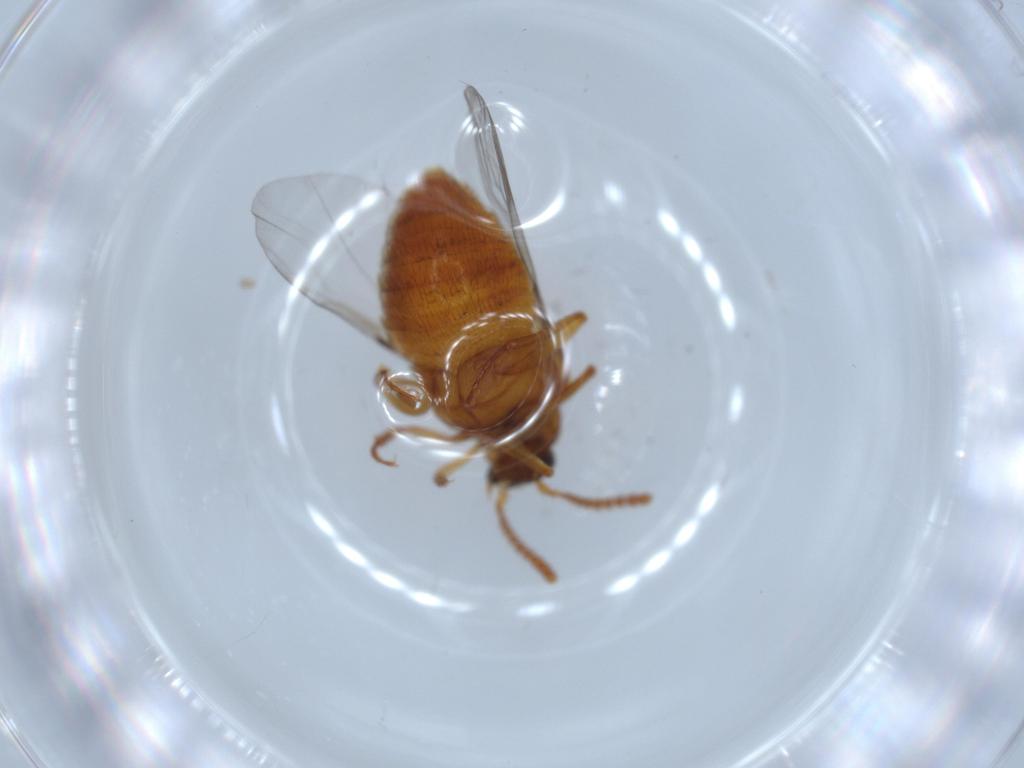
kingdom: Animalia
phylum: Arthropoda
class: Insecta
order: Coleoptera
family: Staphylinidae
